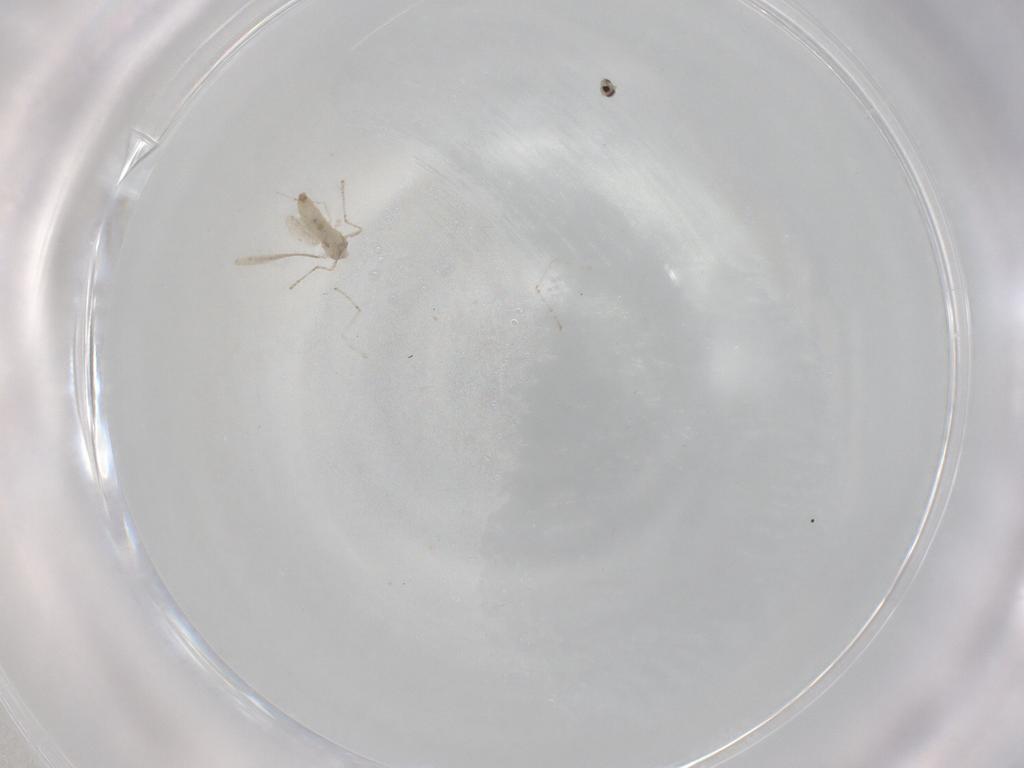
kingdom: Animalia
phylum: Arthropoda
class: Insecta
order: Diptera
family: Cecidomyiidae
